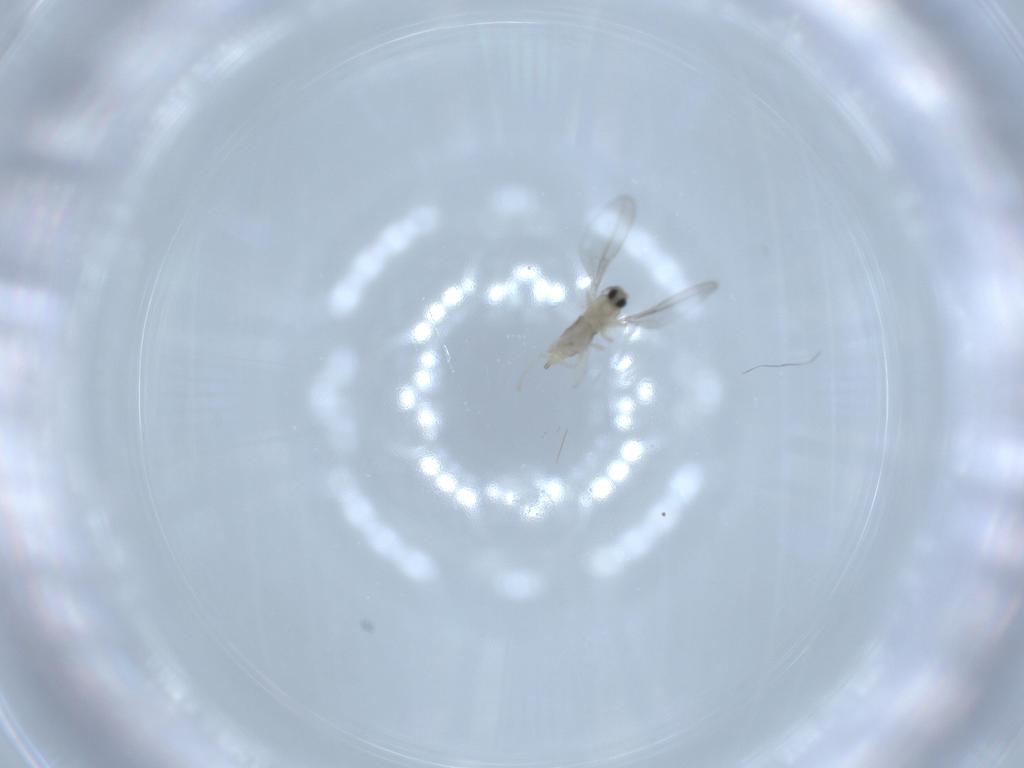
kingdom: Animalia
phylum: Arthropoda
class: Insecta
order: Diptera
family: Cecidomyiidae
